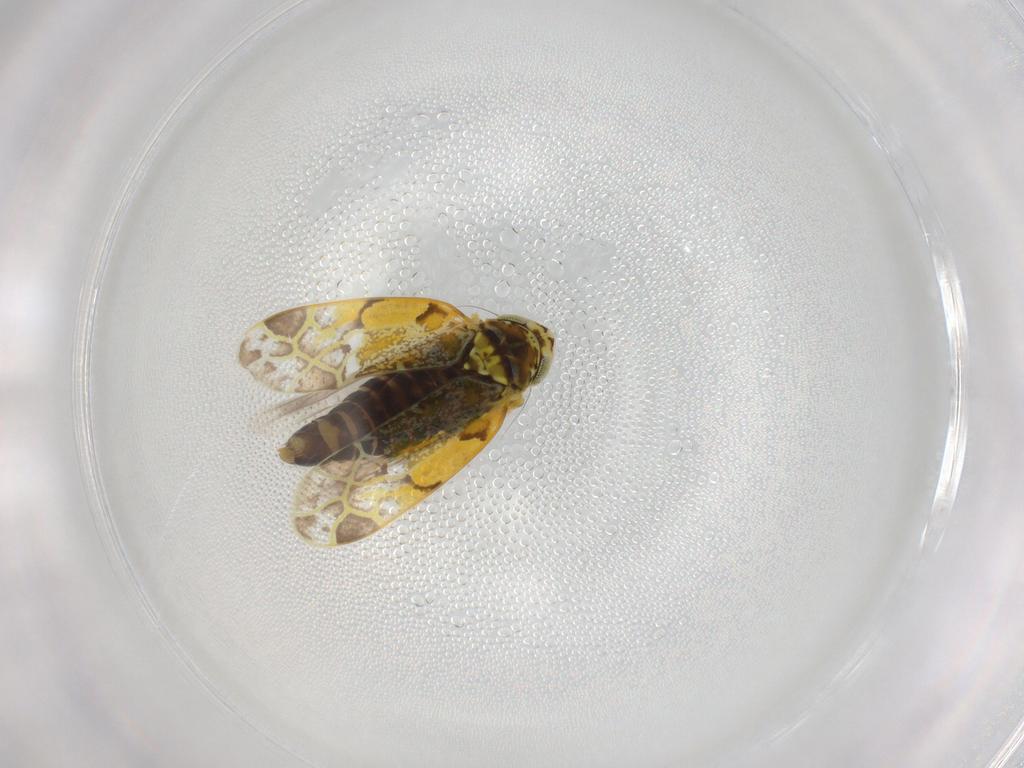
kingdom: Animalia
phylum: Arthropoda
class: Insecta
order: Hemiptera
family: Cicadellidae
